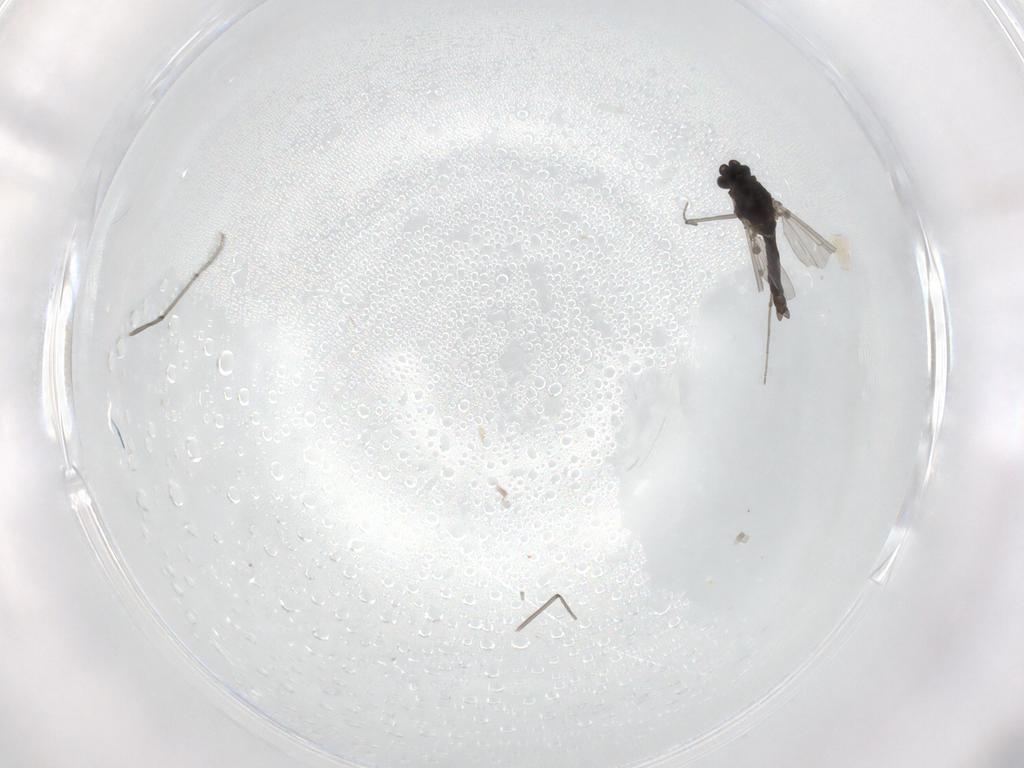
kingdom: Animalia
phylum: Arthropoda
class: Insecta
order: Diptera
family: Chironomidae
